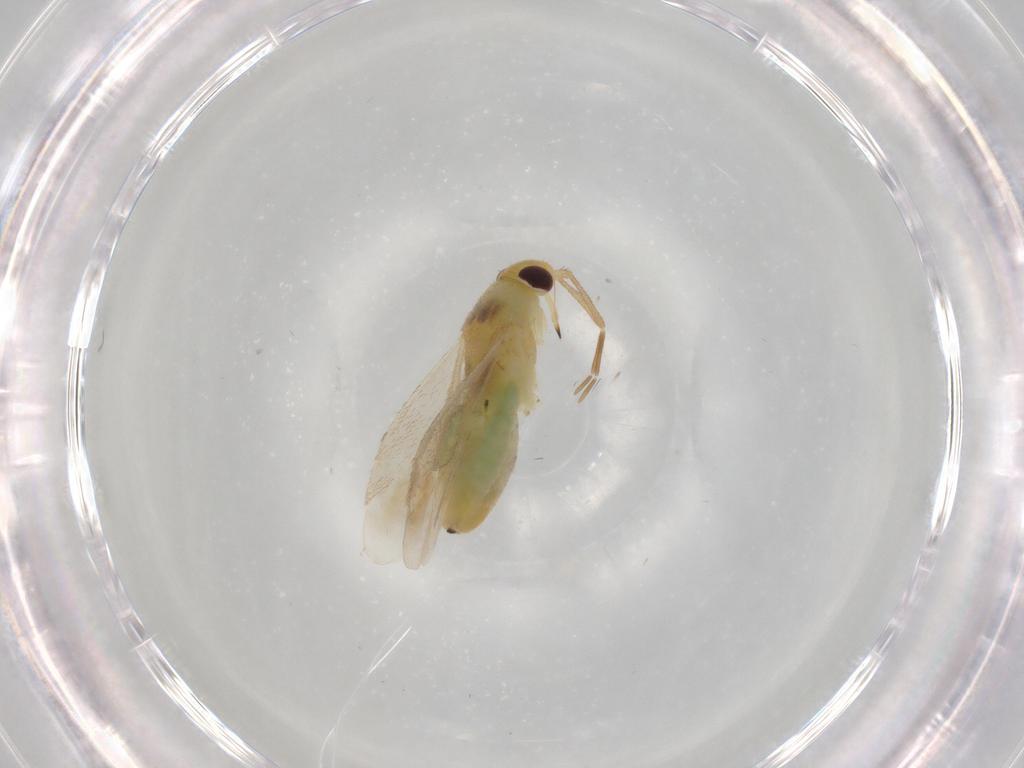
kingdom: Animalia
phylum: Arthropoda
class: Insecta
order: Hemiptera
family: Miridae
